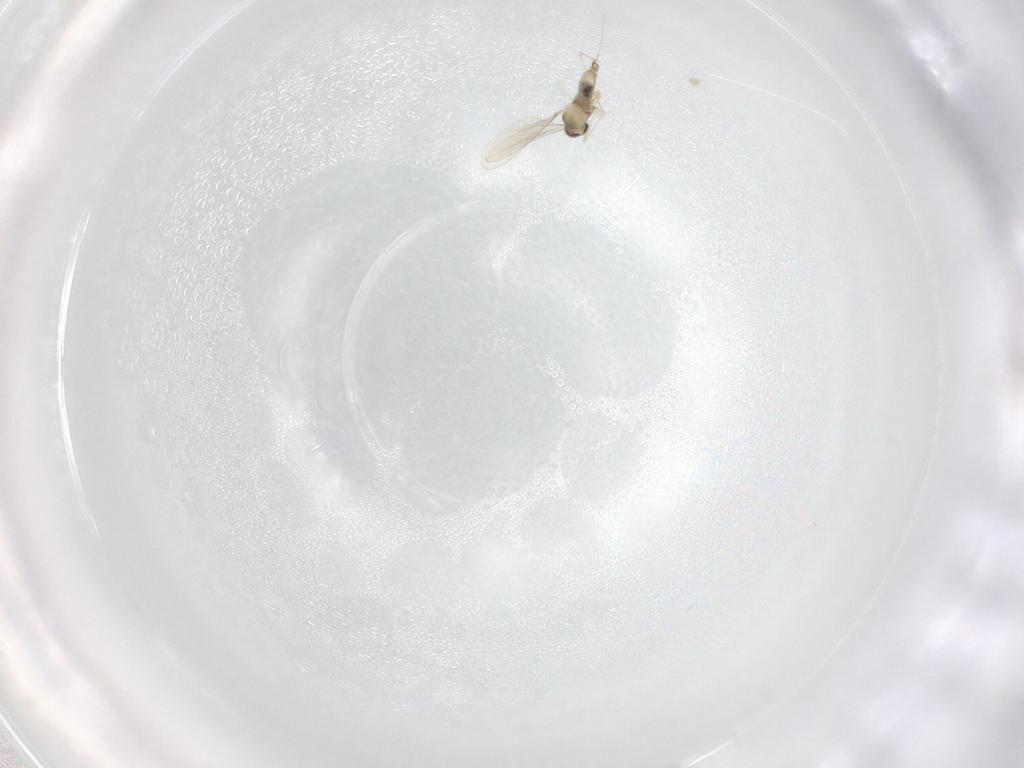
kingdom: Animalia
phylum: Arthropoda
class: Insecta
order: Diptera
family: Cecidomyiidae
